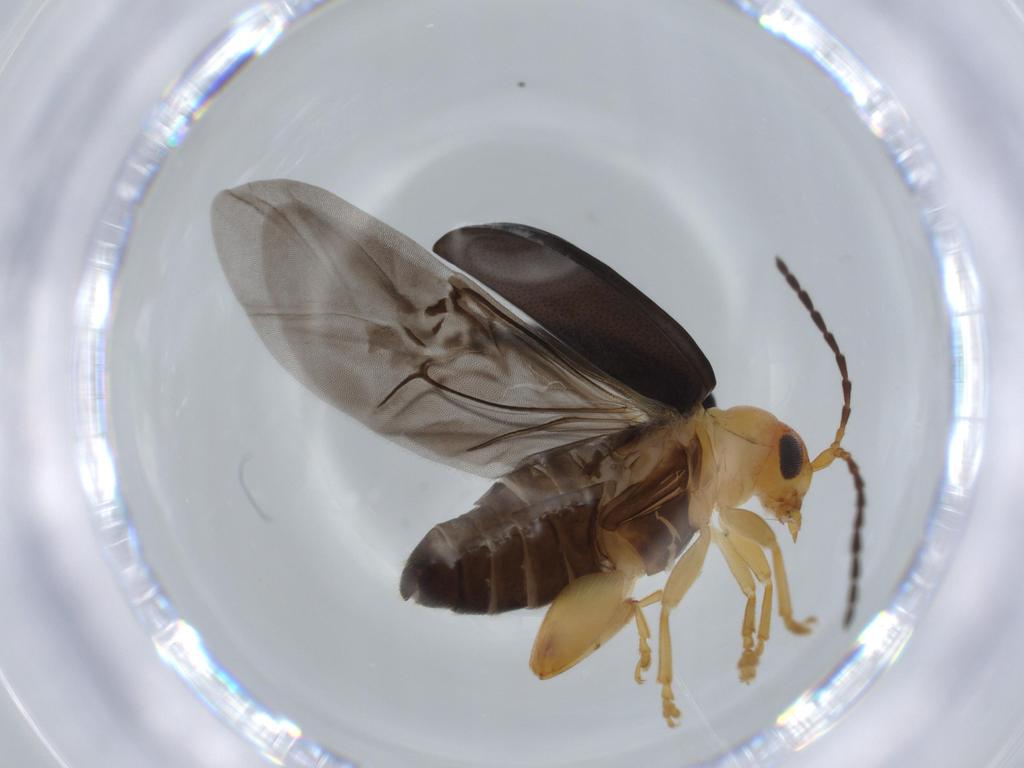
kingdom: Animalia
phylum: Arthropoda
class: Insecta
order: Coleoptera
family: Chrysomelidae
